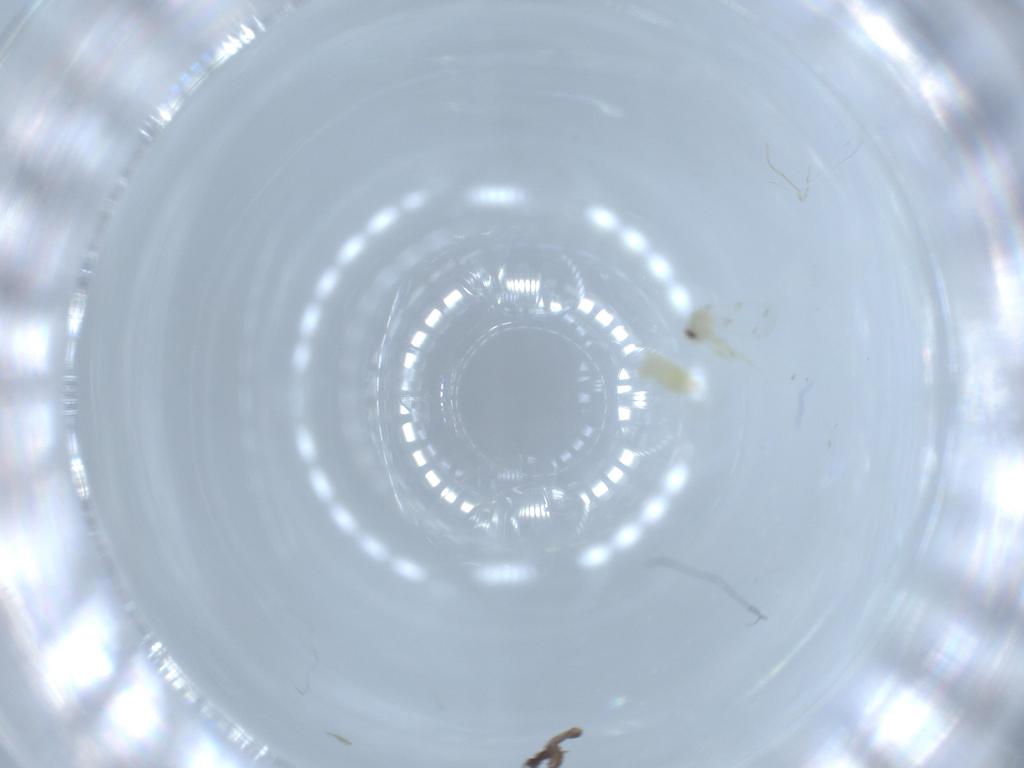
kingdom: Animalia
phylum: Arthropoda
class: Insecta
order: Hemiptera
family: Aleyrodidae
